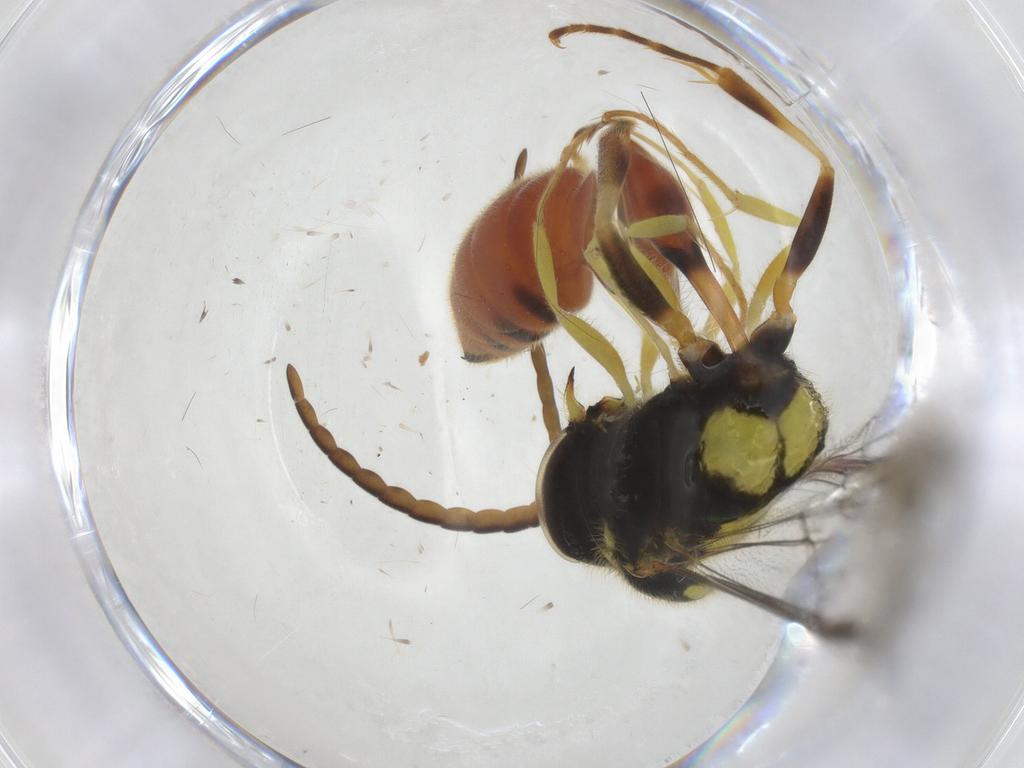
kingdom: Animalia
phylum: Arthropoda
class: Insecta
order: Hymenoptera
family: Crabronidae
